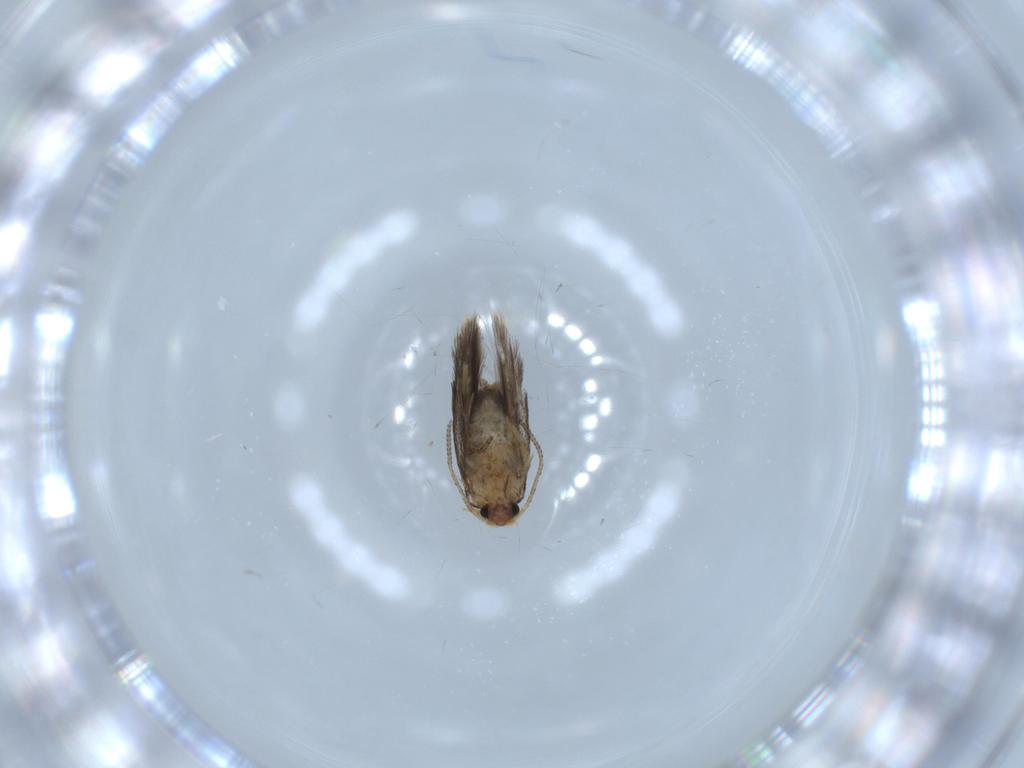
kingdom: Animalia
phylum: Arthropoda
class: Insecta
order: Lepidoptera
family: Nepticulidae
